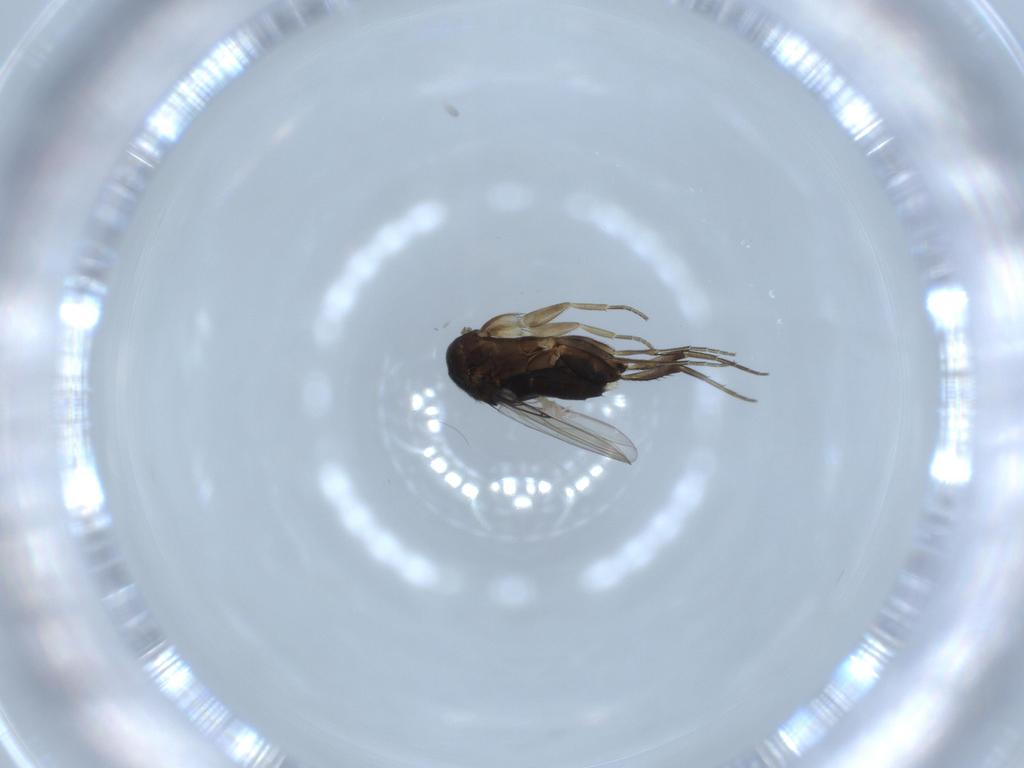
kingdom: Animalia
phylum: Arthropoda
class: Insecta
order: Diptera
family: Phoridae
